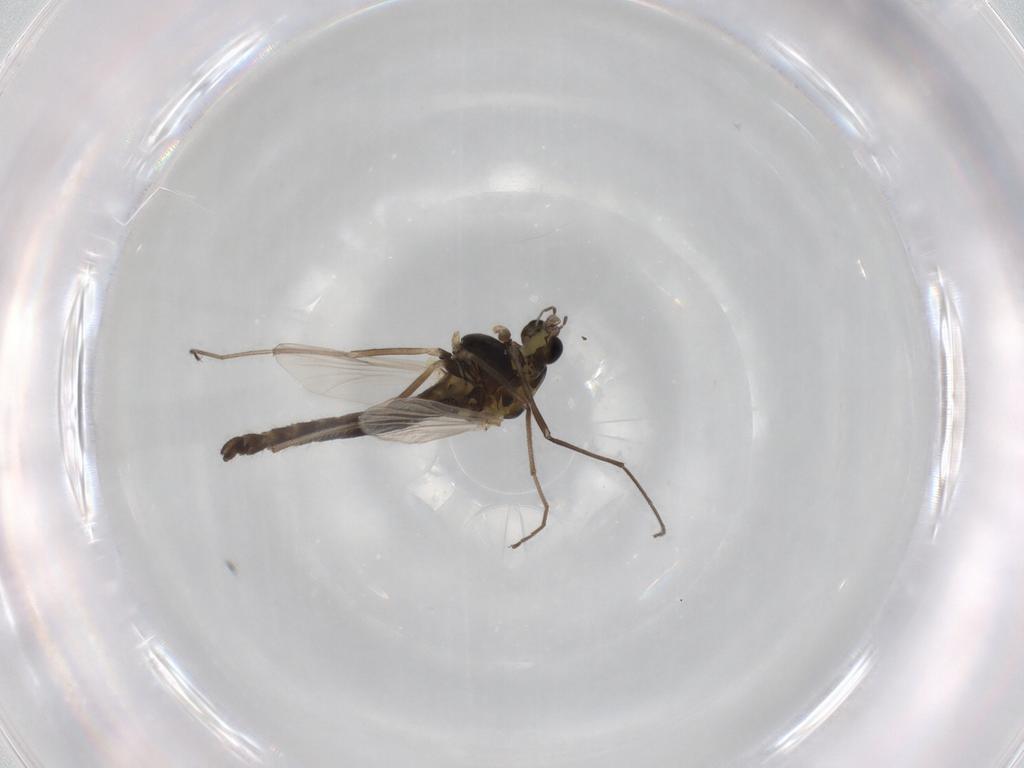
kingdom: Animalia
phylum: Arthropoda
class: Insecta
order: Diptera
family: Chironomidae
